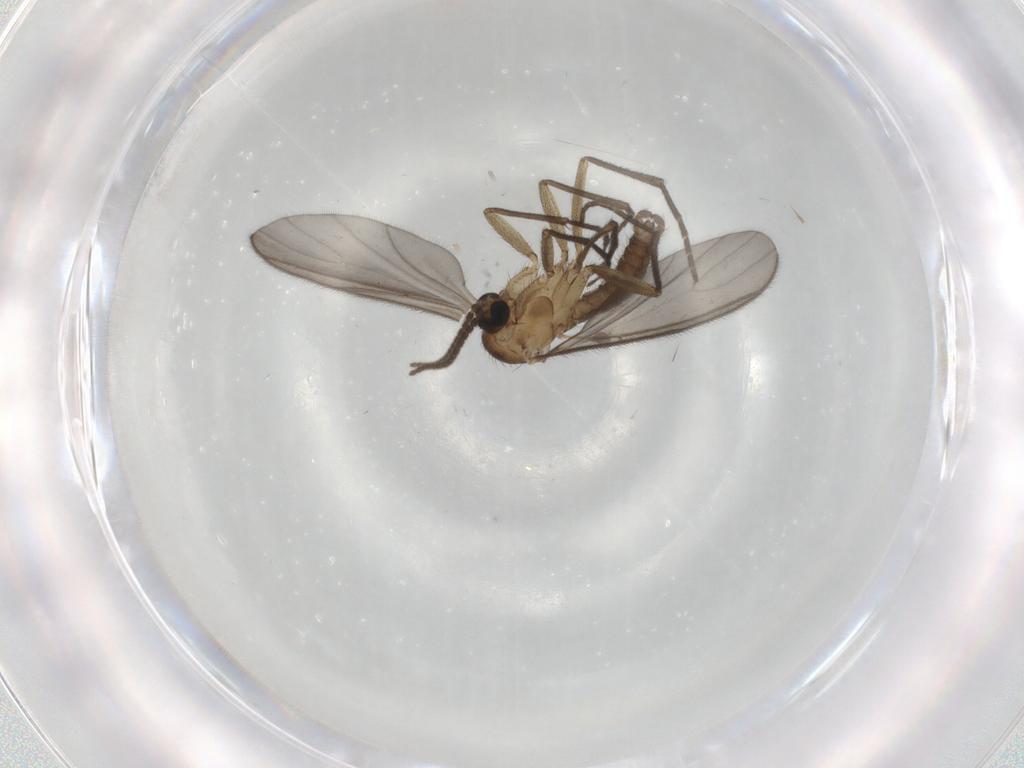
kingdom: Animalia
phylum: Arthropoda
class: Insecta
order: Diptera
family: Sciaridae
